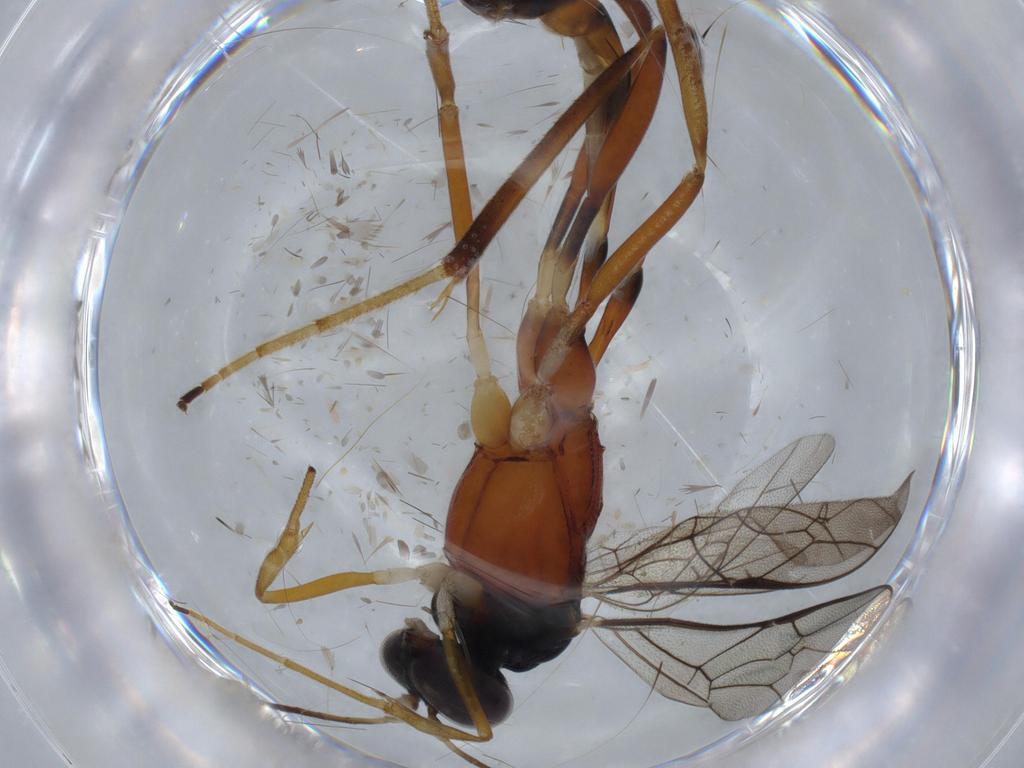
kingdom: Animalia
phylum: Arthropoda
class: Insecta
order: Hymenoptera
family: Ichneumonidae
